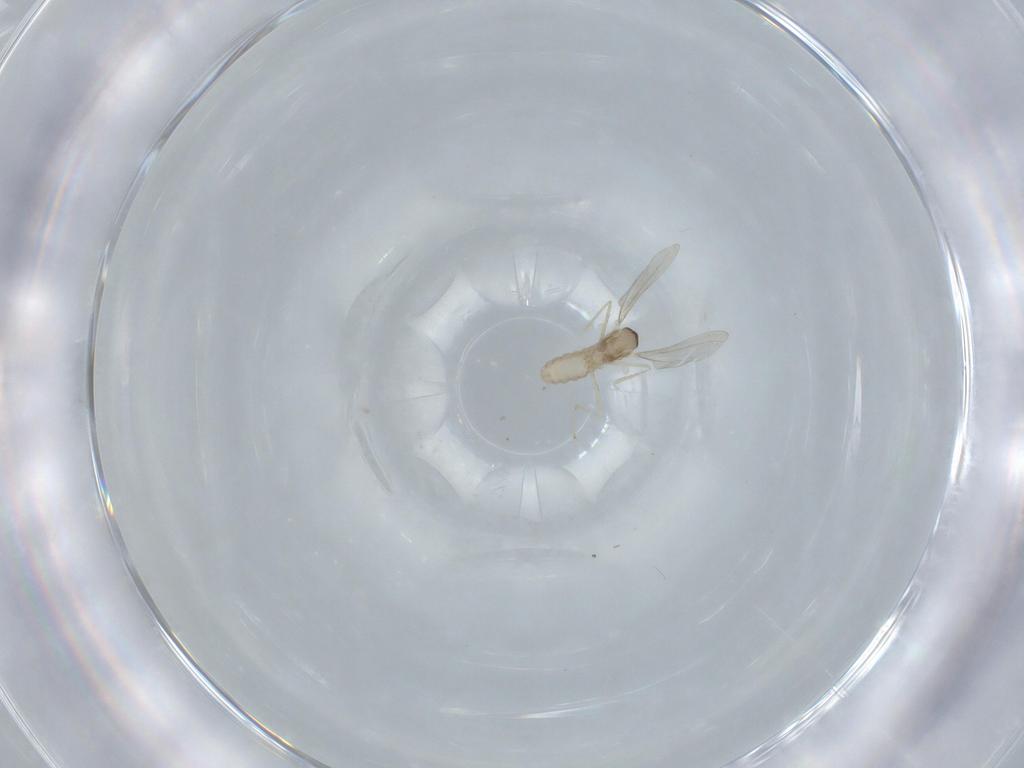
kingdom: Animalia
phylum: Arthropoda
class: Insecta
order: Diptera
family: Cecidomyiidae
